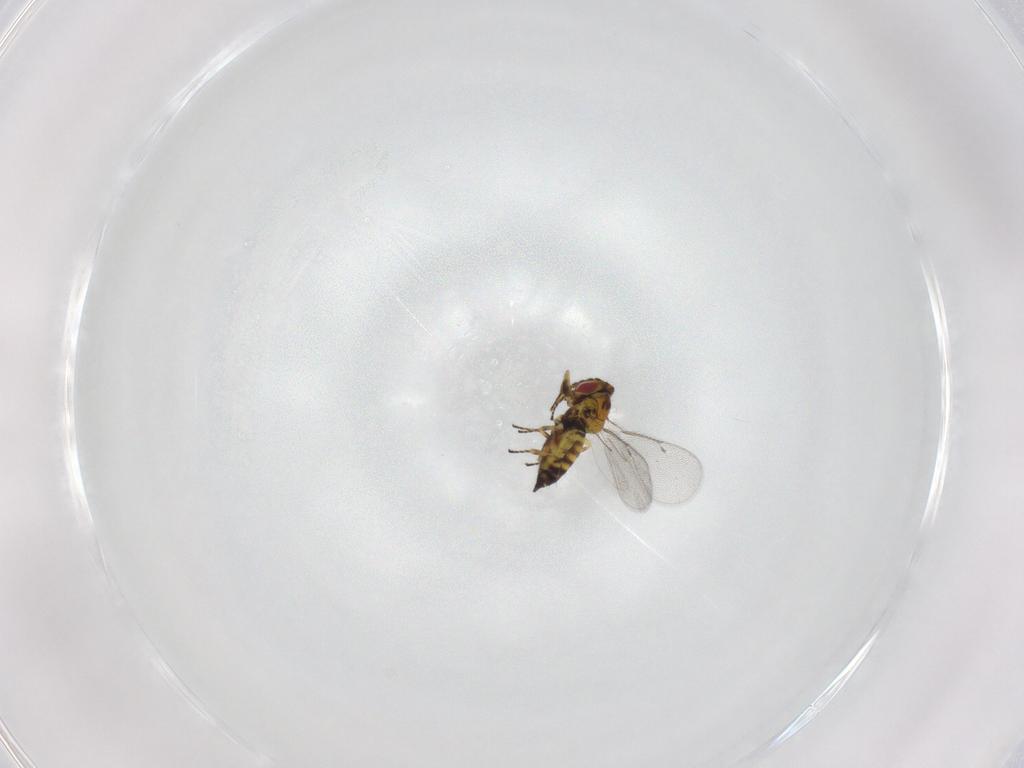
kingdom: Animalia
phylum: Arthropoda
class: Insecta
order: Hymenoptera
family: Eulophidae
